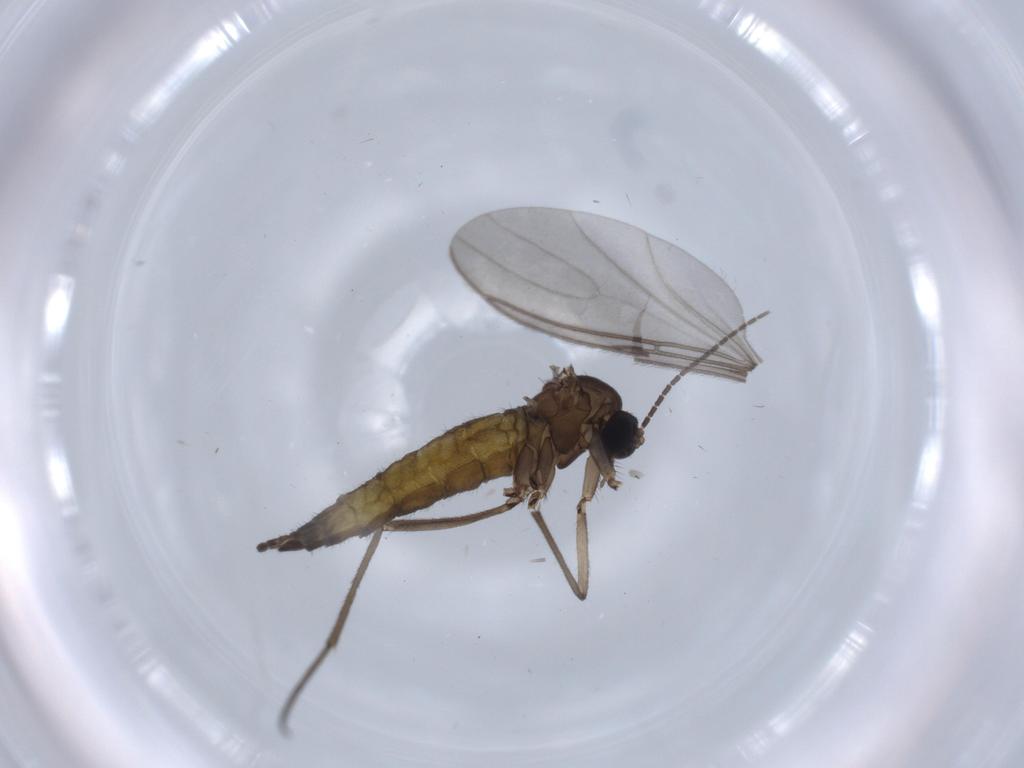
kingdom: Animalia
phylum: Arthropoda
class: Insecta
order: Diptera
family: Sciaridae
